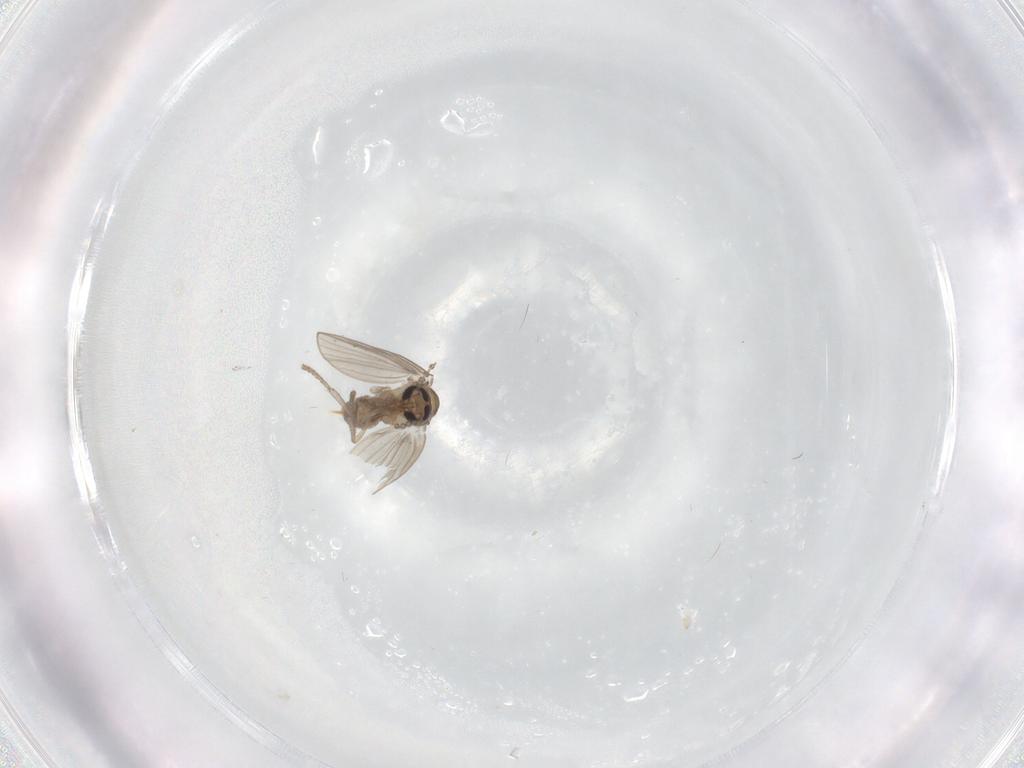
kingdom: Animalia
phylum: Arthropoda
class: Insecta
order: Diptera
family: Psychodidae
